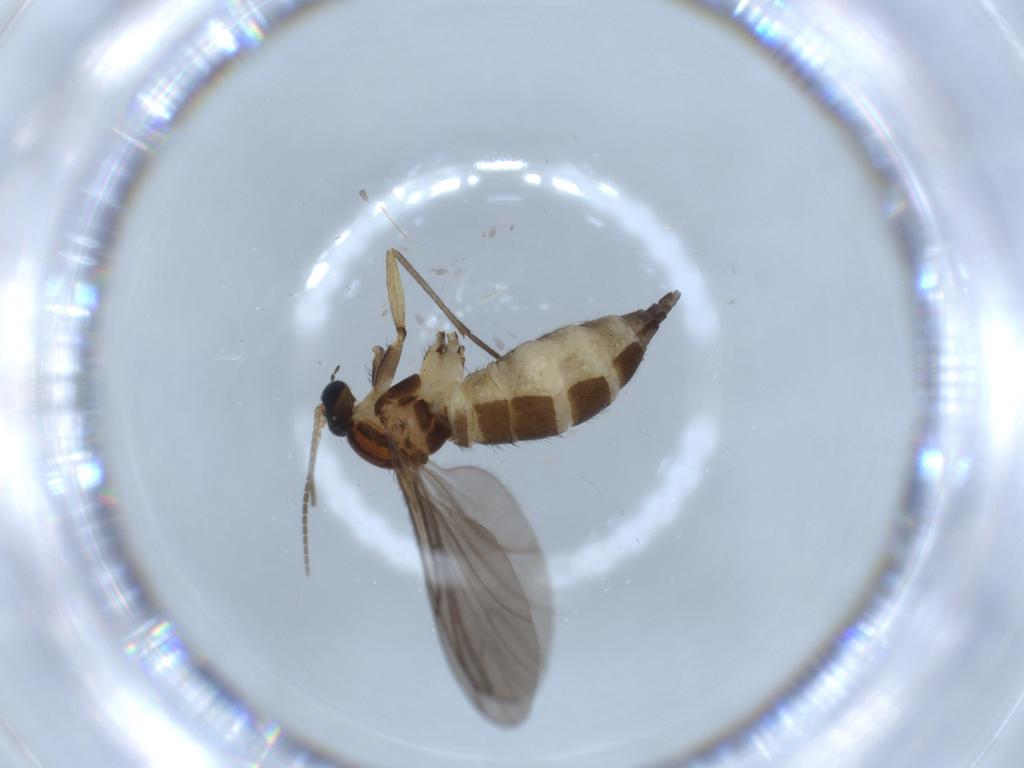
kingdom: Animalia
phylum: Arthropoda
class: Insecta
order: Diptera
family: Sciaridae
